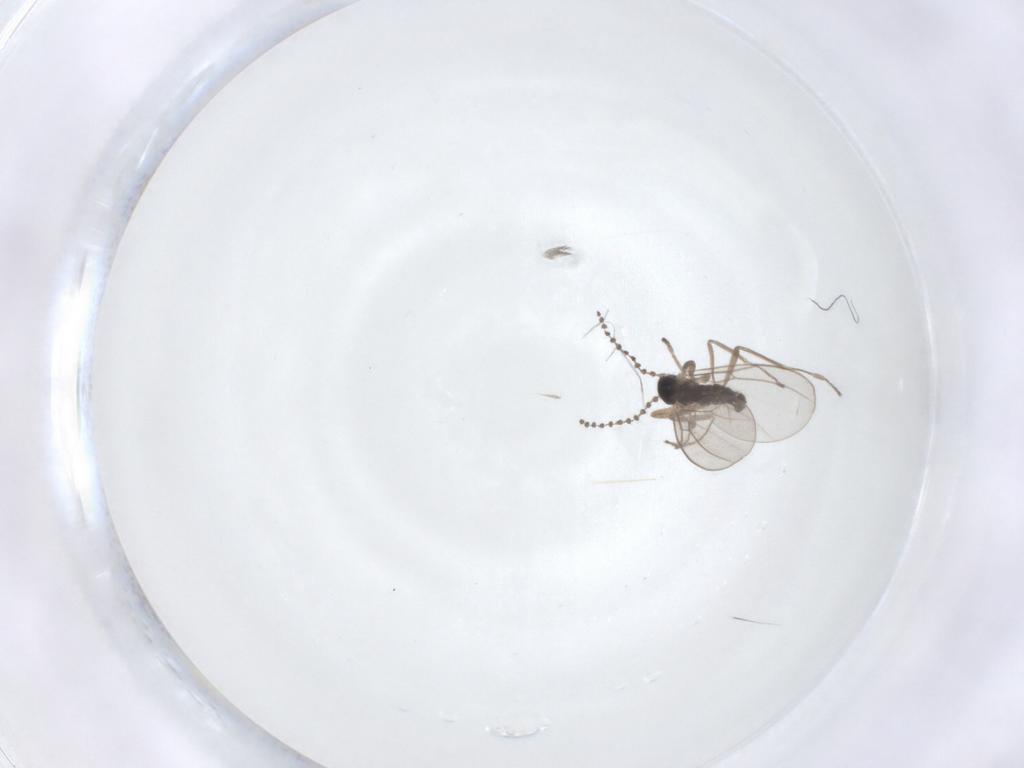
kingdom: Animalia
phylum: Arthropoda
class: Insecta
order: Diptera
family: Cecidomyiidae
